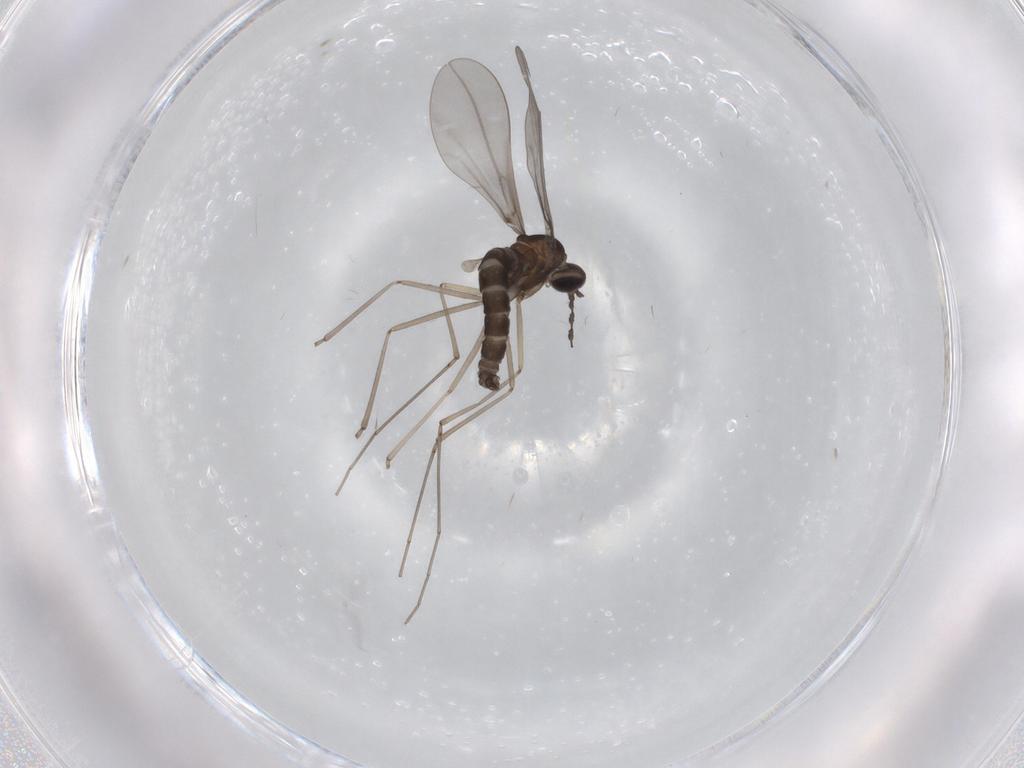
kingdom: Animalia
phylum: Arthropoda
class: Insecta
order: Diptera
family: Cecidomyiidae
